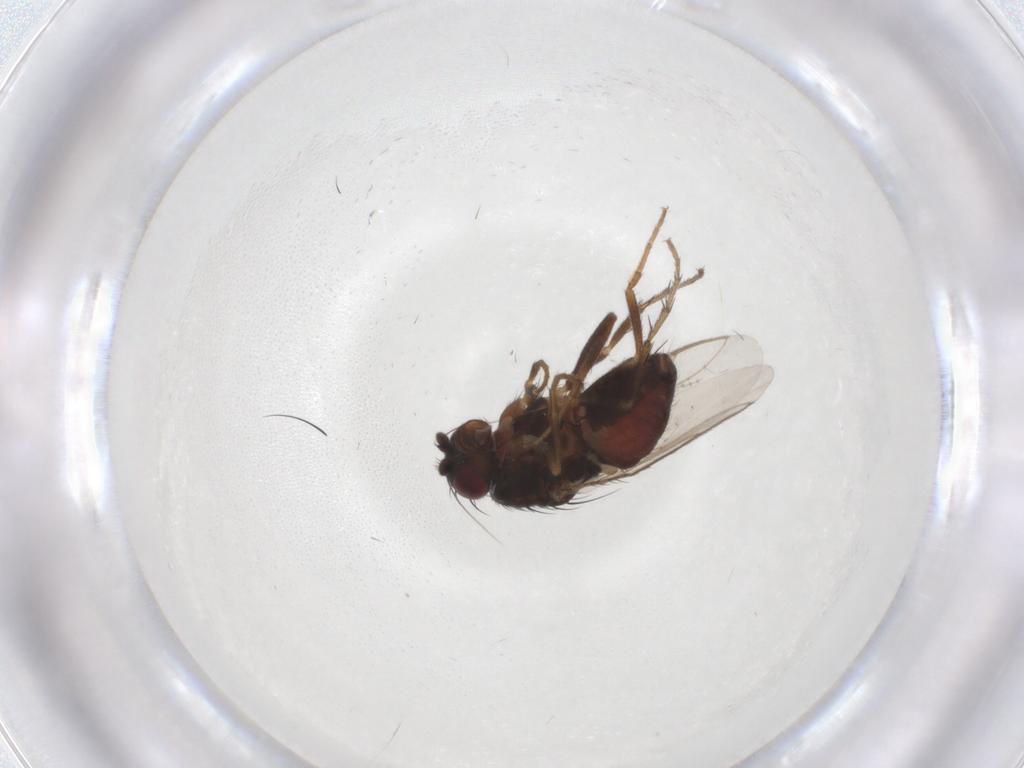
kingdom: Animalia
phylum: Arthropoda
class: Insecta
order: Diptera
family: Sphaeroceridae
